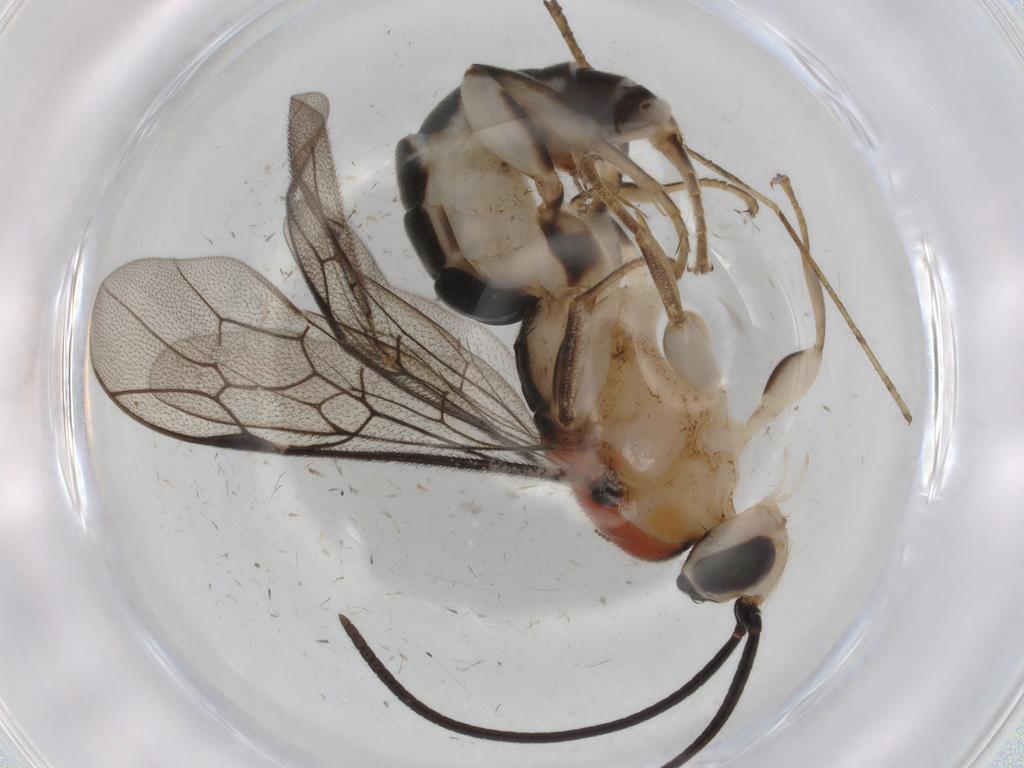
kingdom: Animalia
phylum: Arthropoda
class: Insecta
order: Hymenoptera
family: Platygastridae
